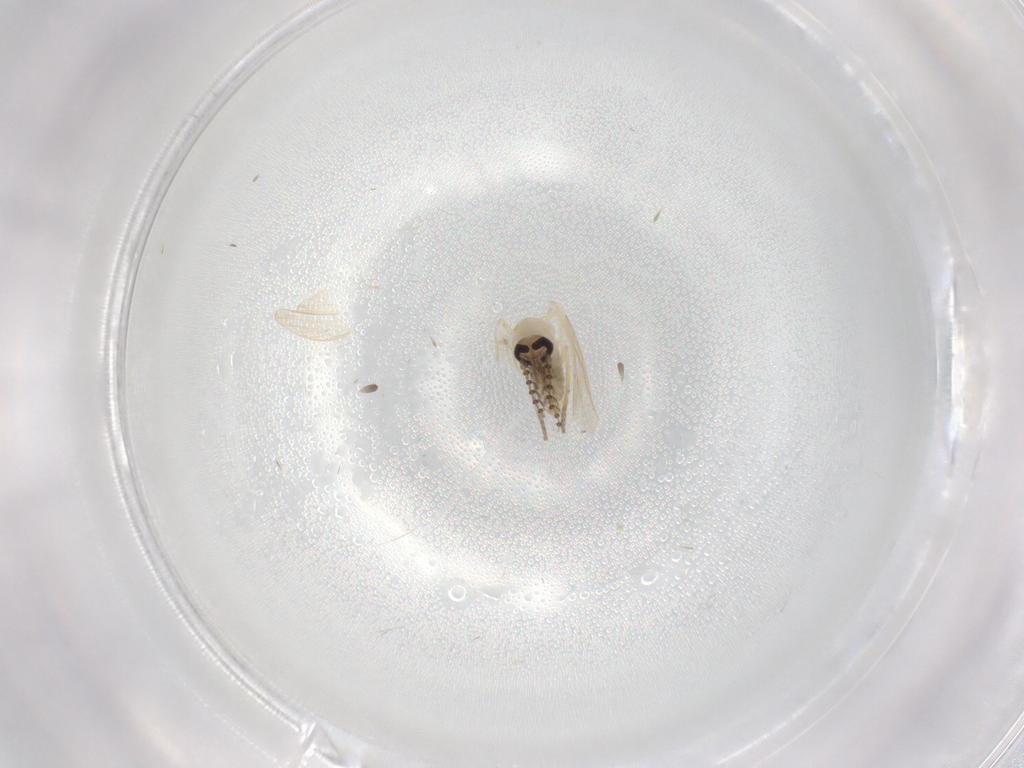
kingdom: Animalia
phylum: Arthropoda
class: Insecta
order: Diptera
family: Psychodidae
